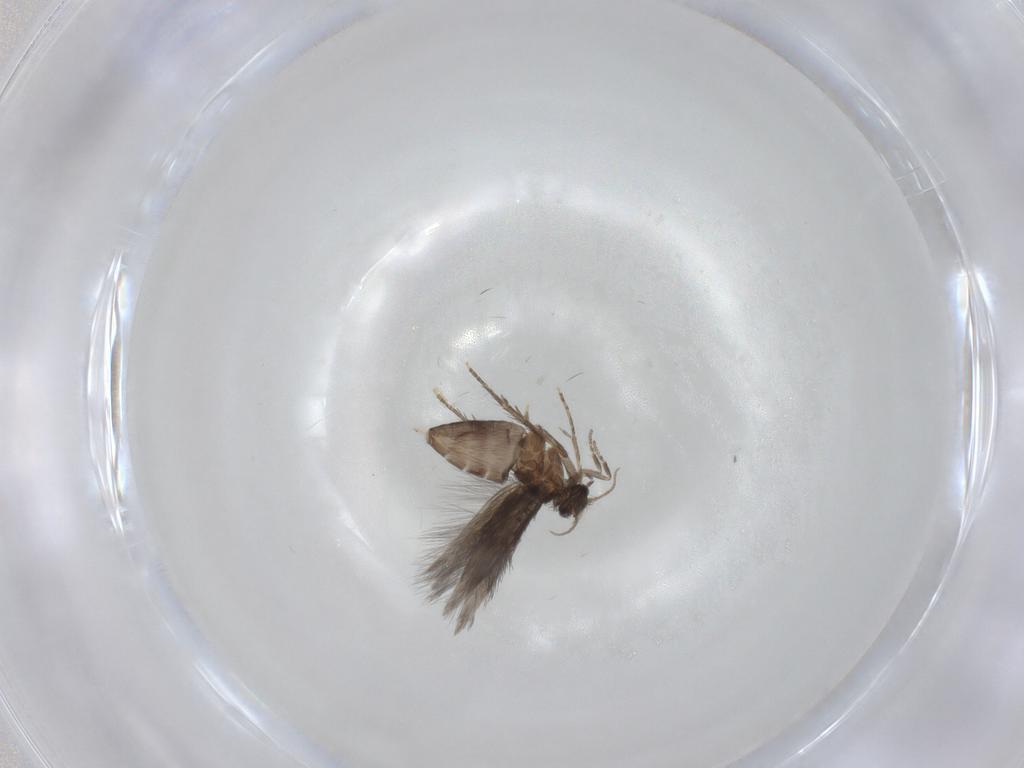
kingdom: Animalia
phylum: Arthropoda
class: Insecta
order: Trichoptera
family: Hydroptilidae
